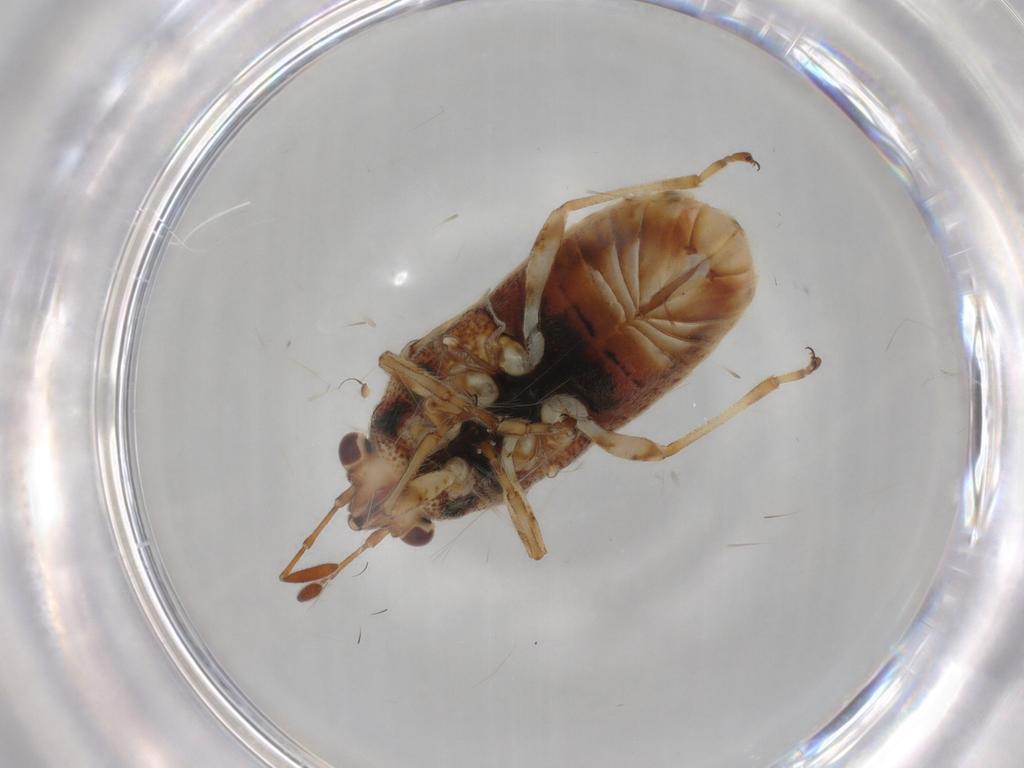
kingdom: Animalia
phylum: Arthropoda
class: Insecta
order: Hemiptera
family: Lygaeidae
